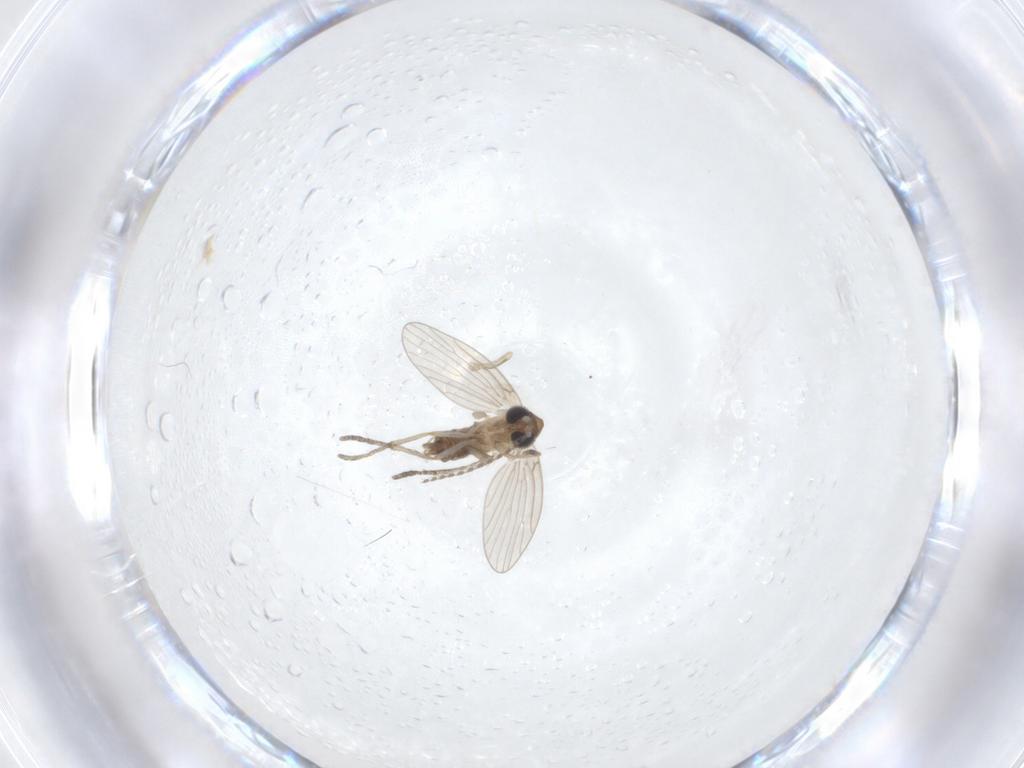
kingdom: Animalia
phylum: Arthropoda
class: Insecta
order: Diptera
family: Psychodidae
